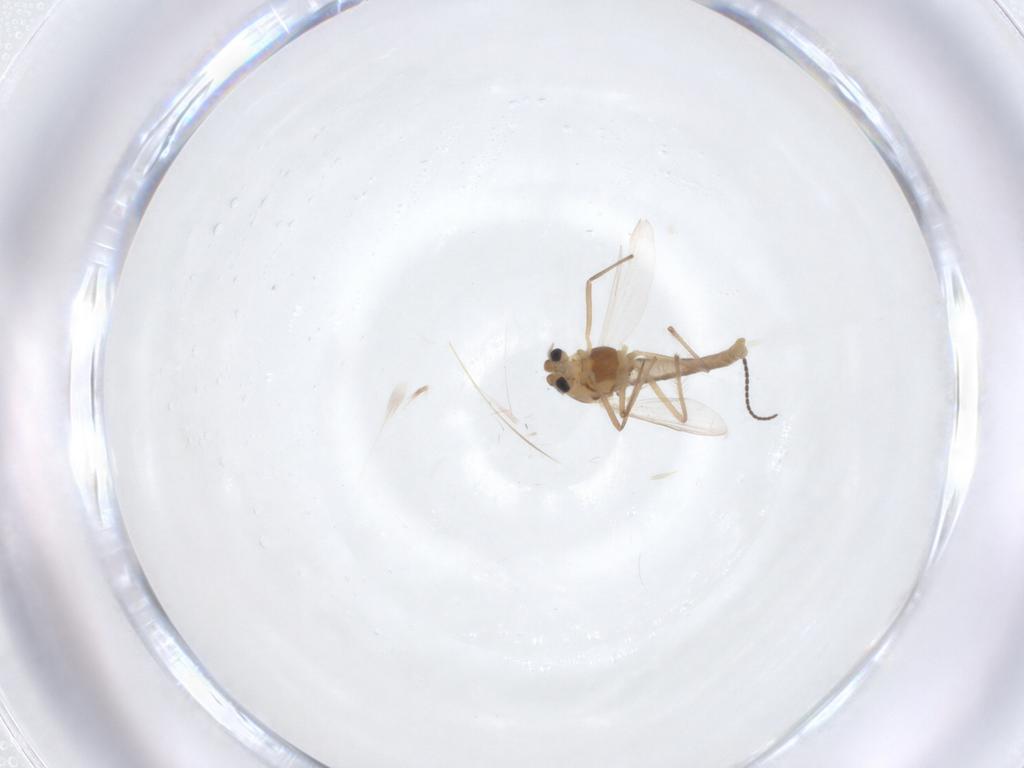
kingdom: Animalia
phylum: Arthropoda
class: Insecta
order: Diptera
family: Chironomidae
